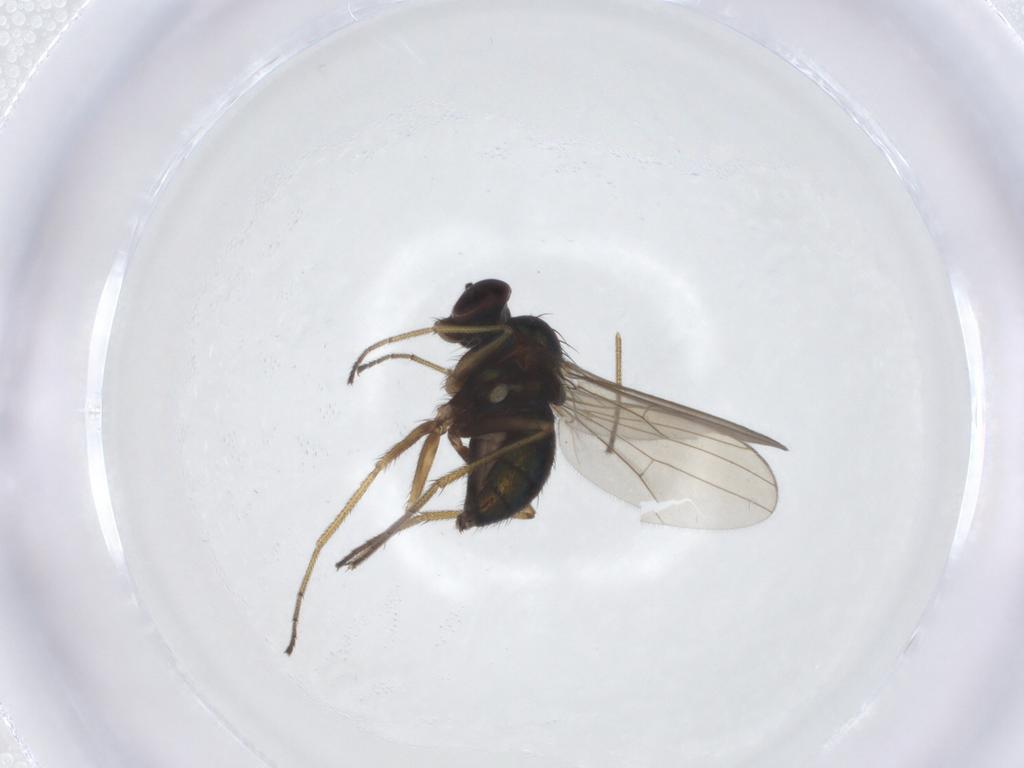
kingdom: Animalia
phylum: Arthropoda
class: Insecta
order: Diptera
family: Dolichopodidae
